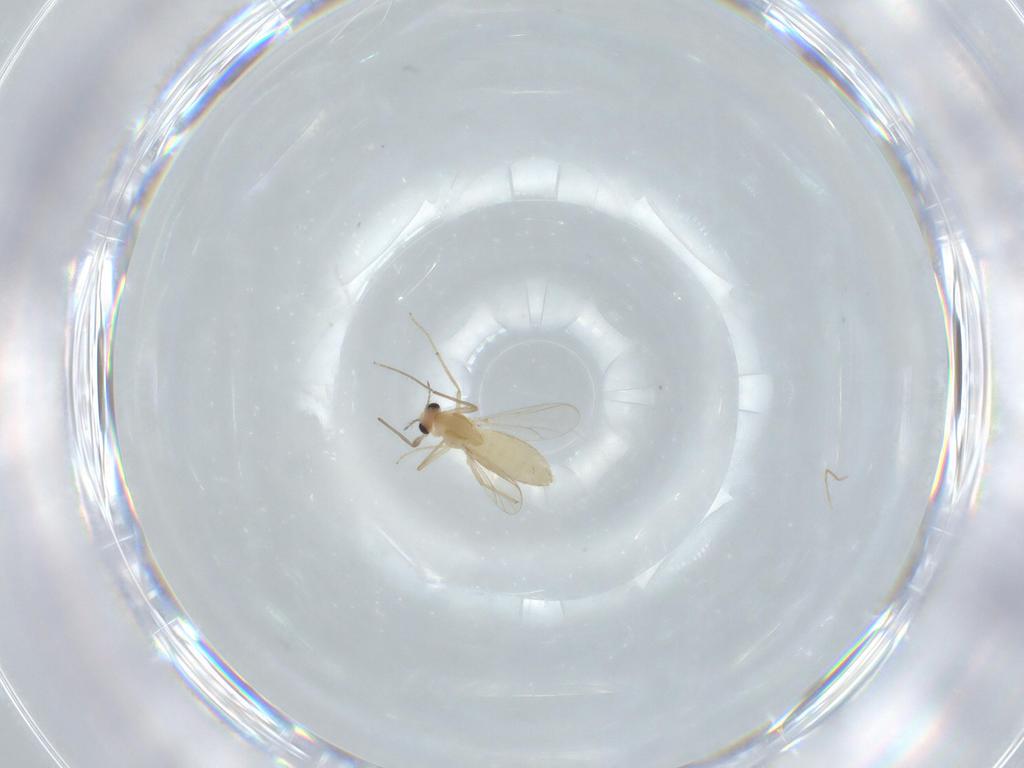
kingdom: Animalia
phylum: Arthropoda
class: Insecta
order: Diptera
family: Chironomidae
